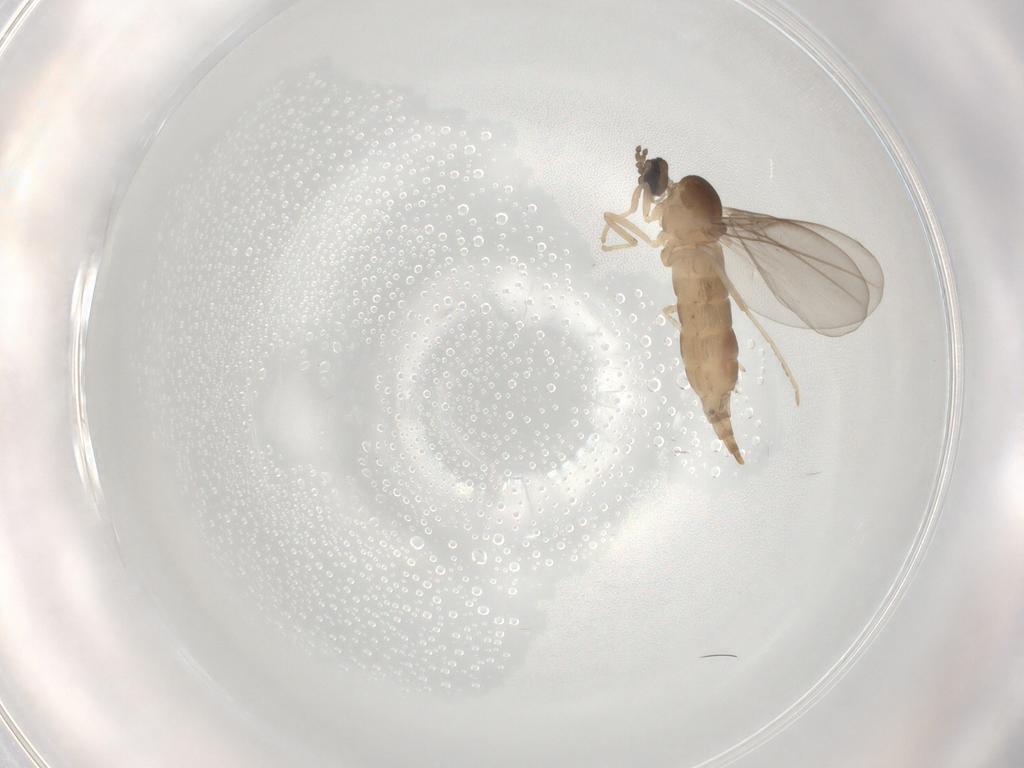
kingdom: Animalia
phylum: Arthropoda
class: Insecta
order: Diptera
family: Cecidomyiidae
